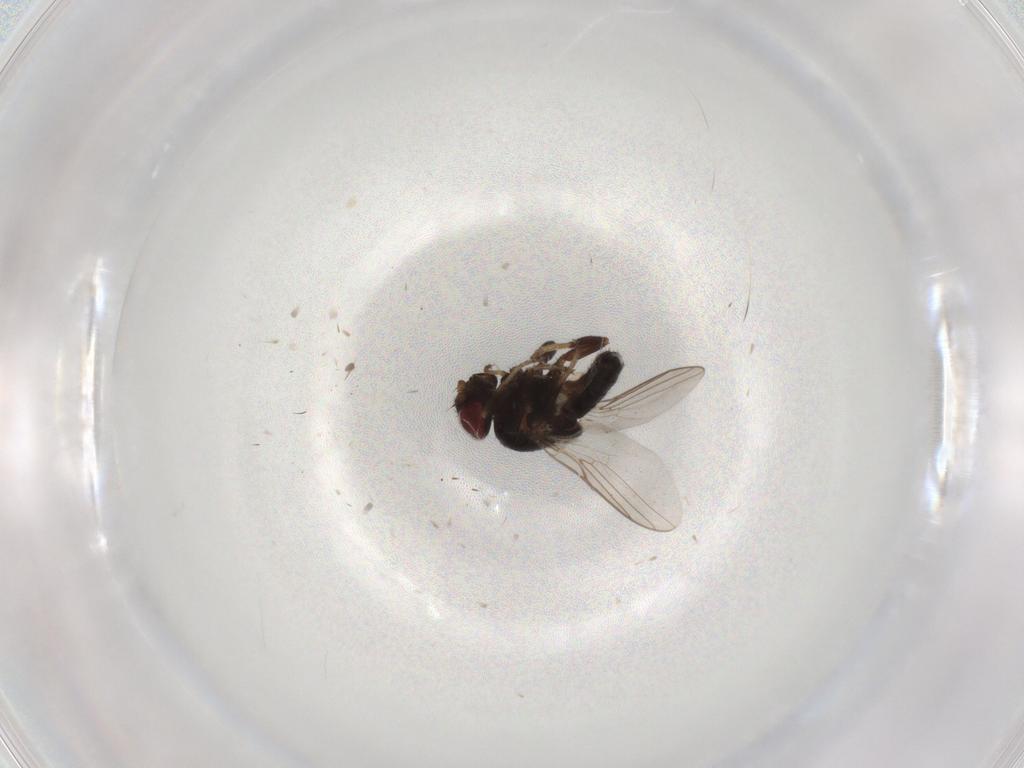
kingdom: Animalia
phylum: Arthropoda
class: Insecta
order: Diptera
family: Chloropidae
